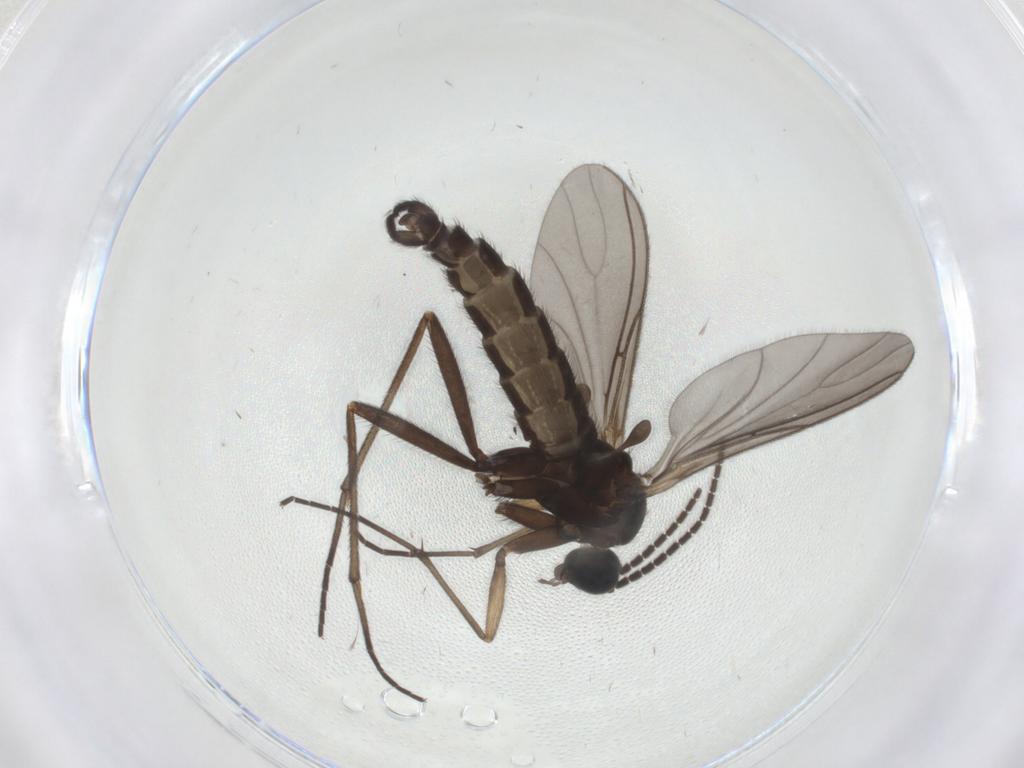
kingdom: Animalia
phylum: Arthropoda
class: Insecta
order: Diptera
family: Sciaridae
